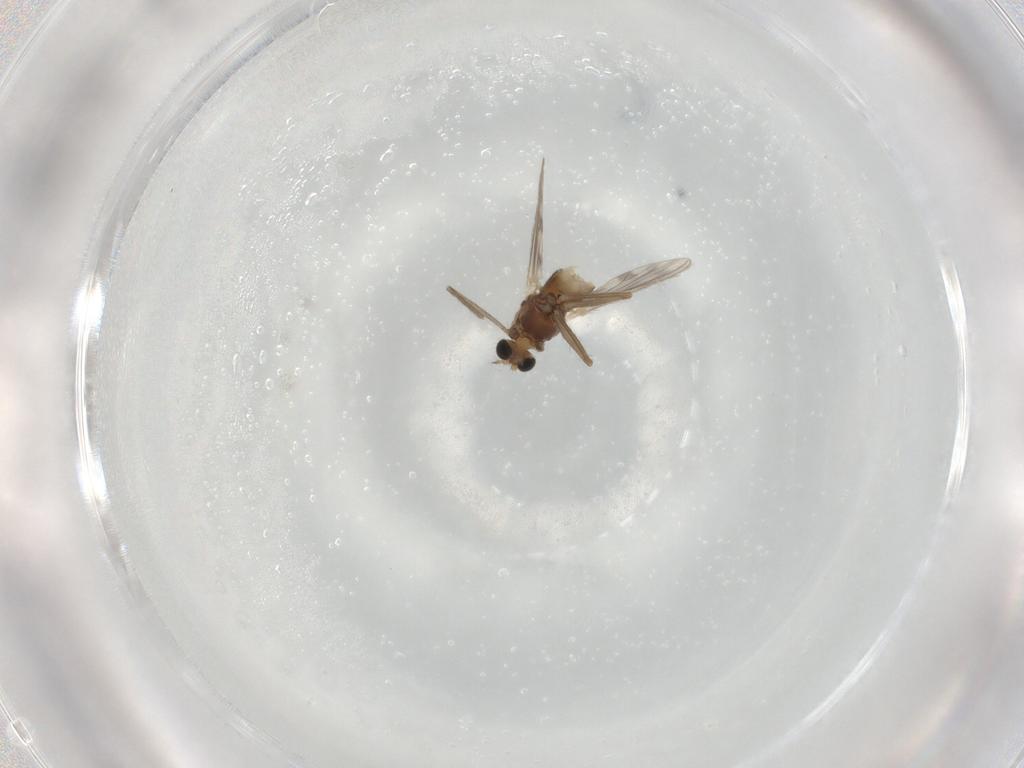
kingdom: Animalia
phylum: Arthropoda
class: Insecta
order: Diptera
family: Chironomidae
